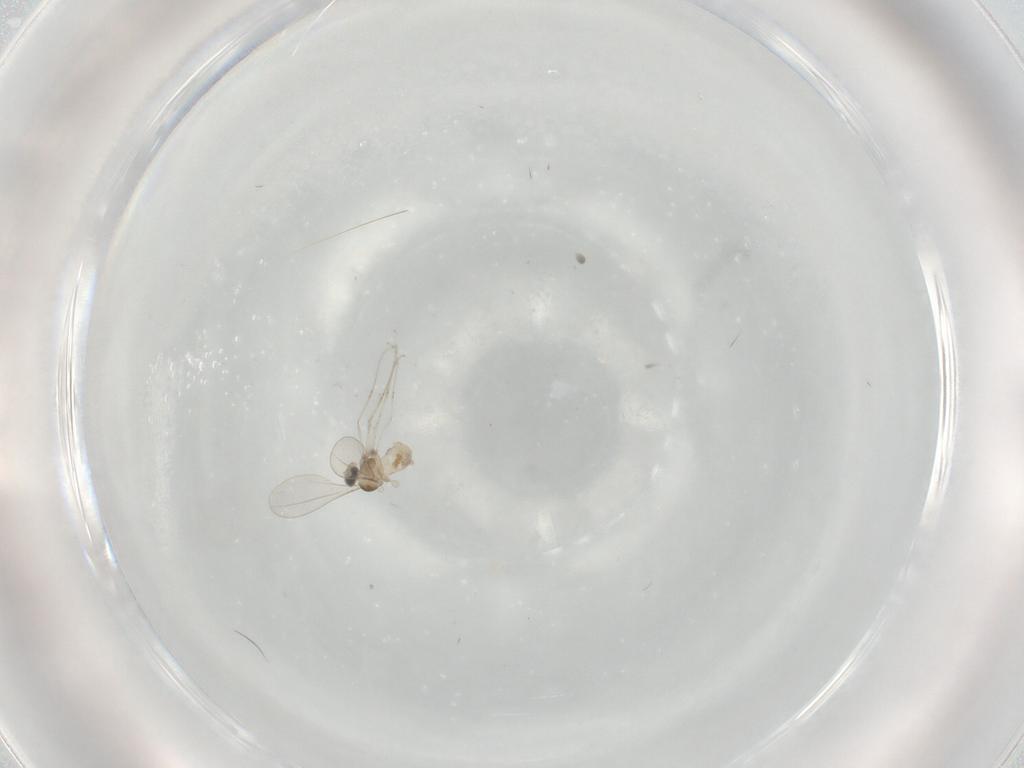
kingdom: Animalia
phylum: Arthropoda
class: Insecta
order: Diptera
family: Cecidomyiidae
